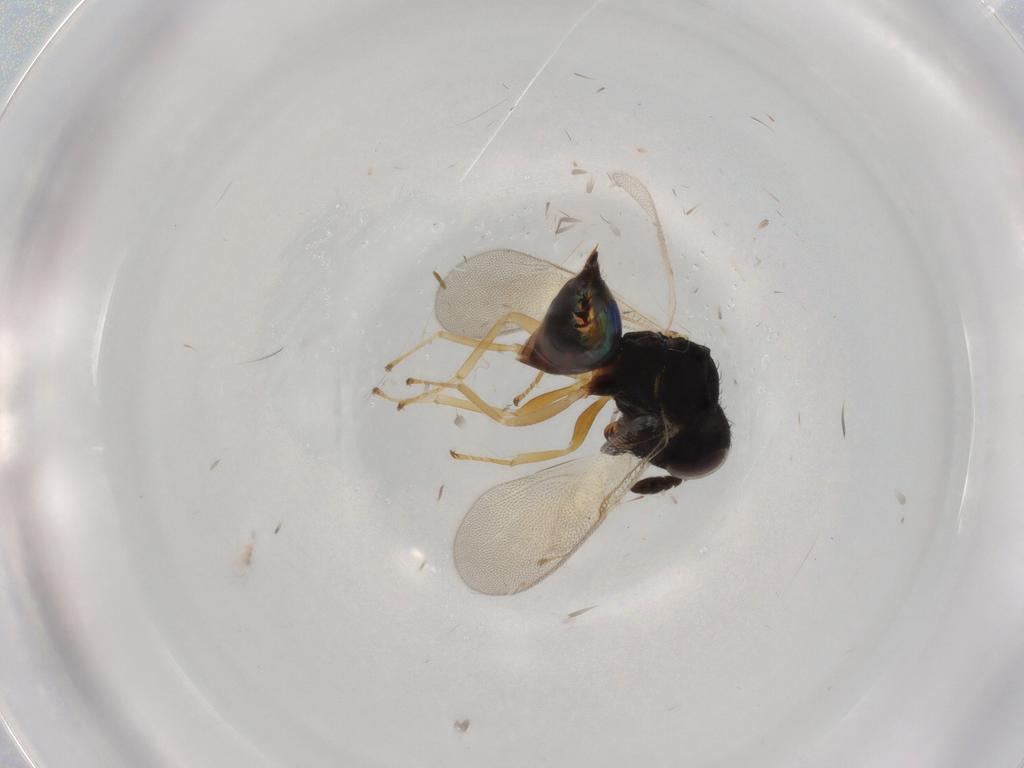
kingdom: Animalia
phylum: Arthropoda
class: Insecta
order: Hymenoptera
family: Pteromalidae
